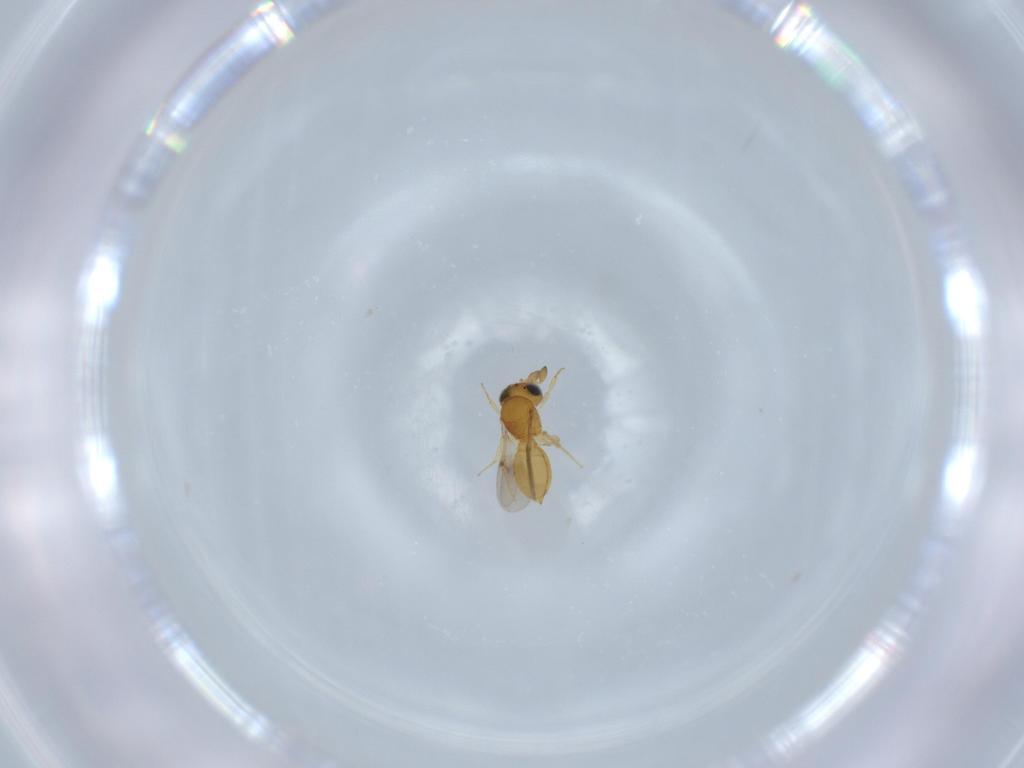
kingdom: Animalia
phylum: Arthropoda
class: Insecta
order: Hymenoptera
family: Scelionidae
